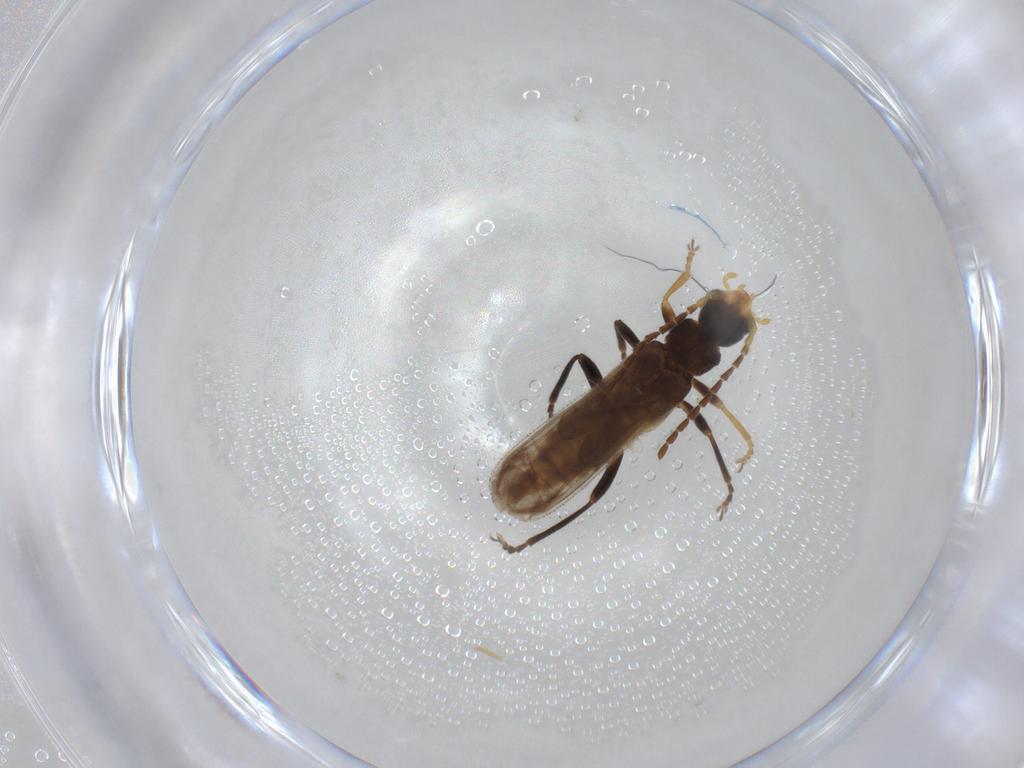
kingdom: Animalia
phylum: Arthropoda
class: Insecta
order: Coleoptera
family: Cantharidae
